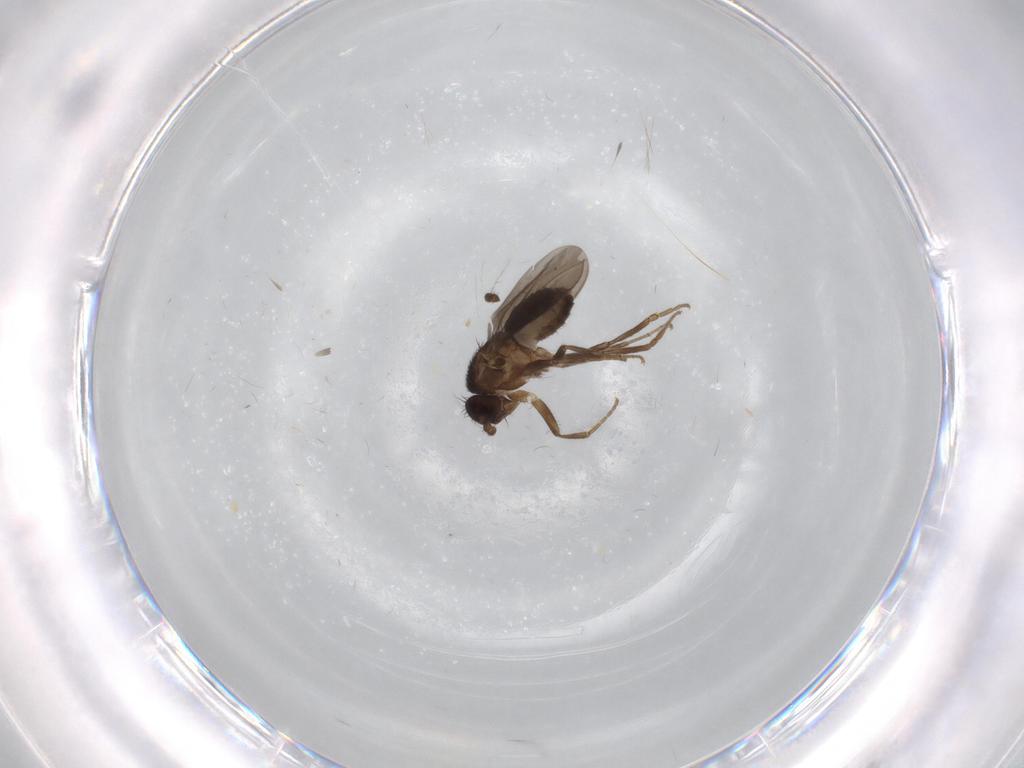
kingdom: Animalia
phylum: Arthropoda
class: Insecta
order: Diptera
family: Sphaeroceridae
